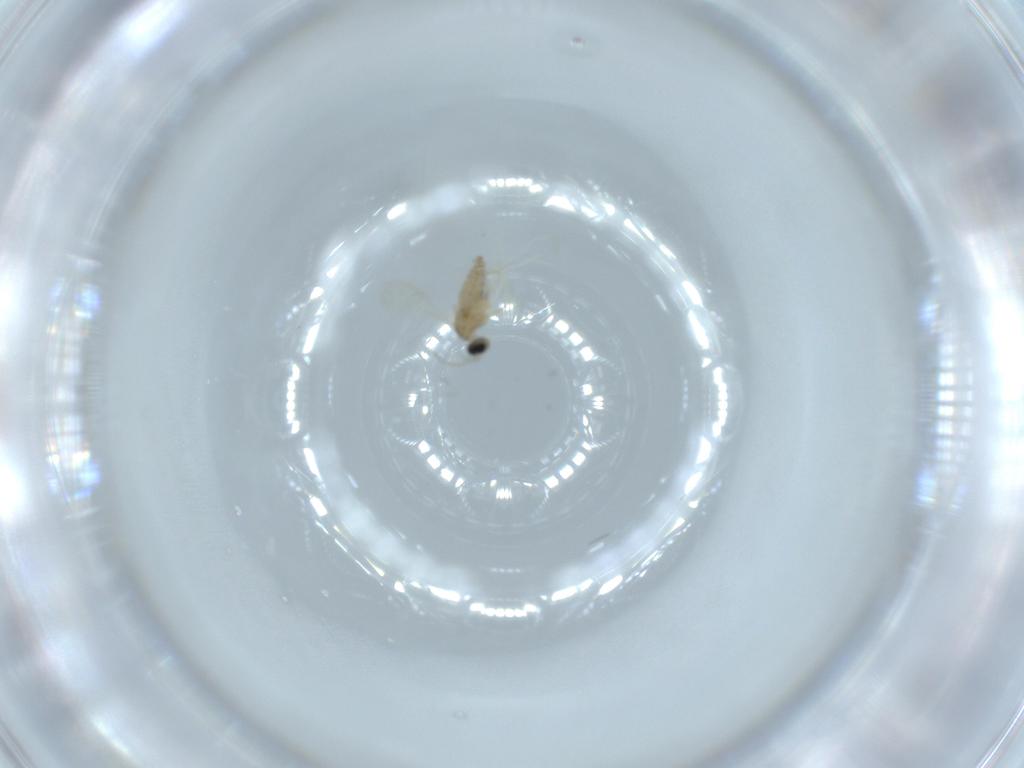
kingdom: Animalia
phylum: Arthropoda
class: Insecta
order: Diptera
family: Cecidomyiidae
